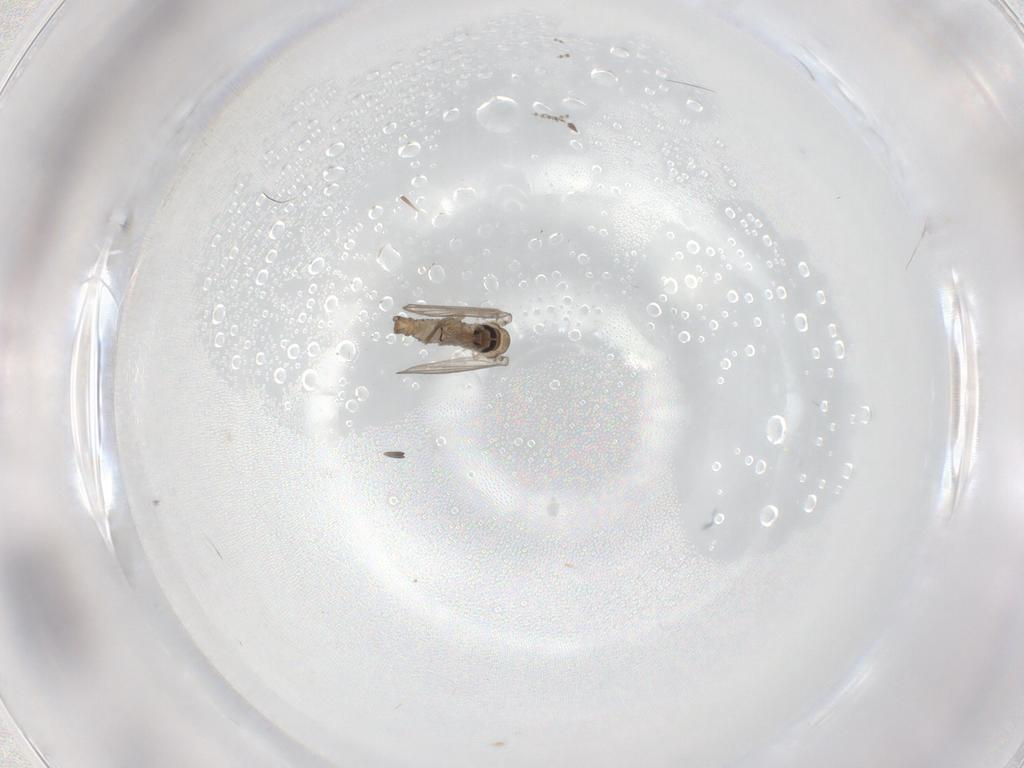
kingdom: Animalia
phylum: Arthropoda
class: Insecta
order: Diptera
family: Psychodidae
